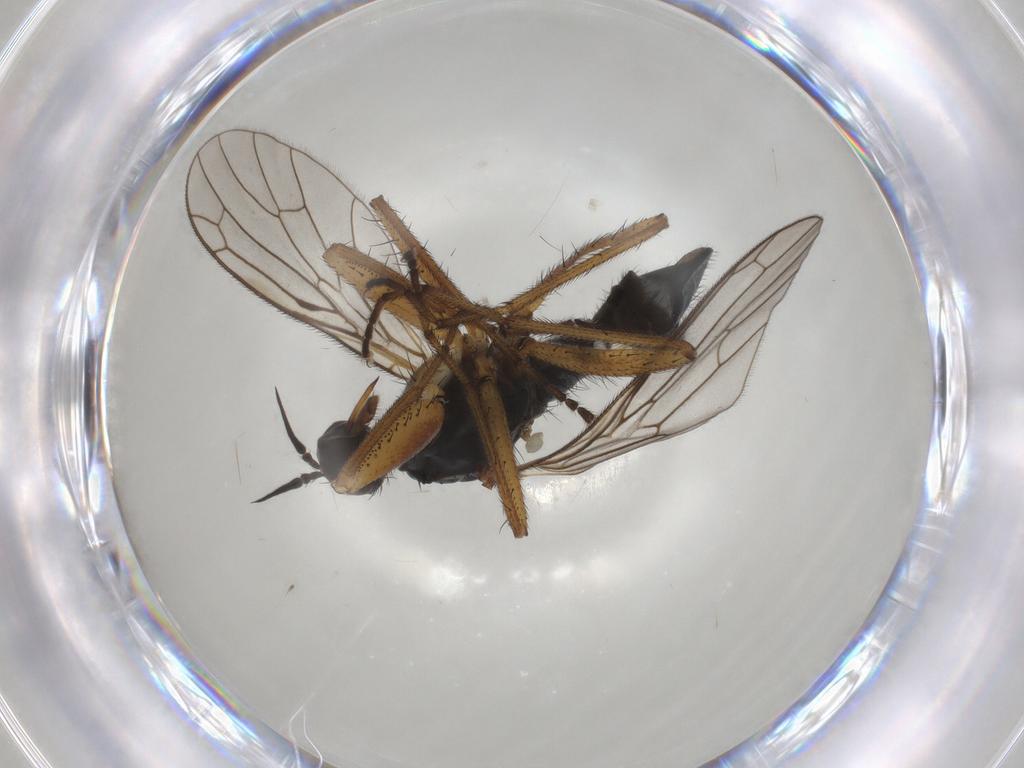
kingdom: Animalia
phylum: Arthropoda
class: Insecta
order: Diptera
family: Empididae
